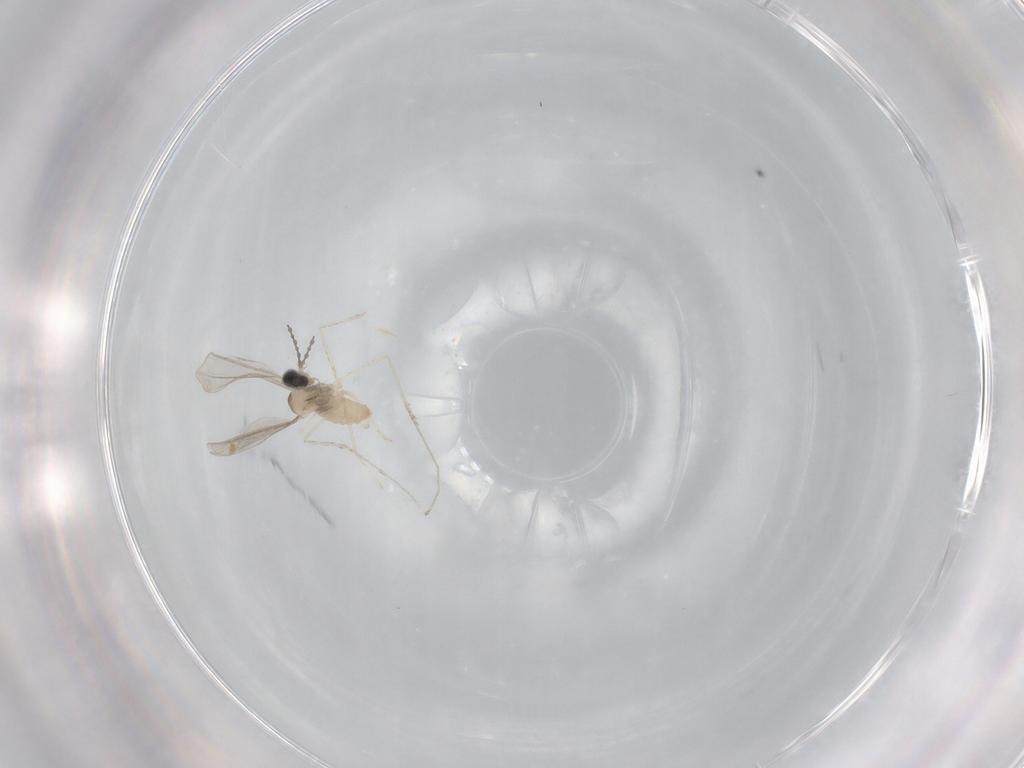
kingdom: Animalia
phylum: Arthropoda
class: Insecta
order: Diptera
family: Cecidomyiidae
